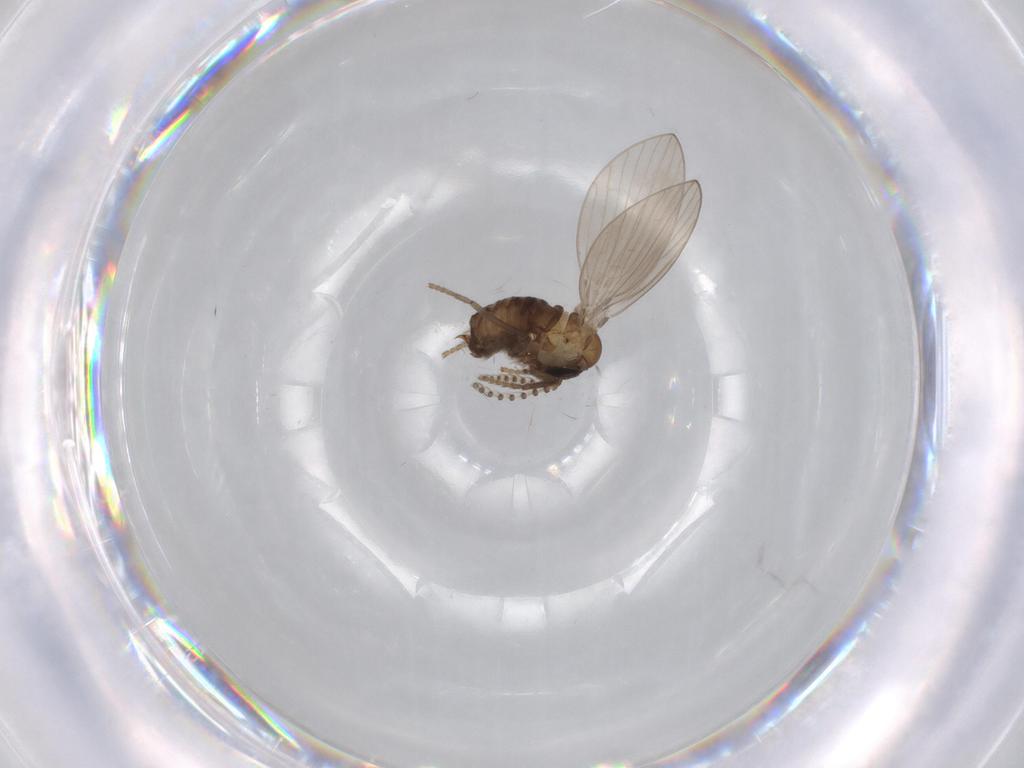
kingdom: Animalia
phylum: Arthropoda
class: Insecta
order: Diptera
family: Psychodidae
